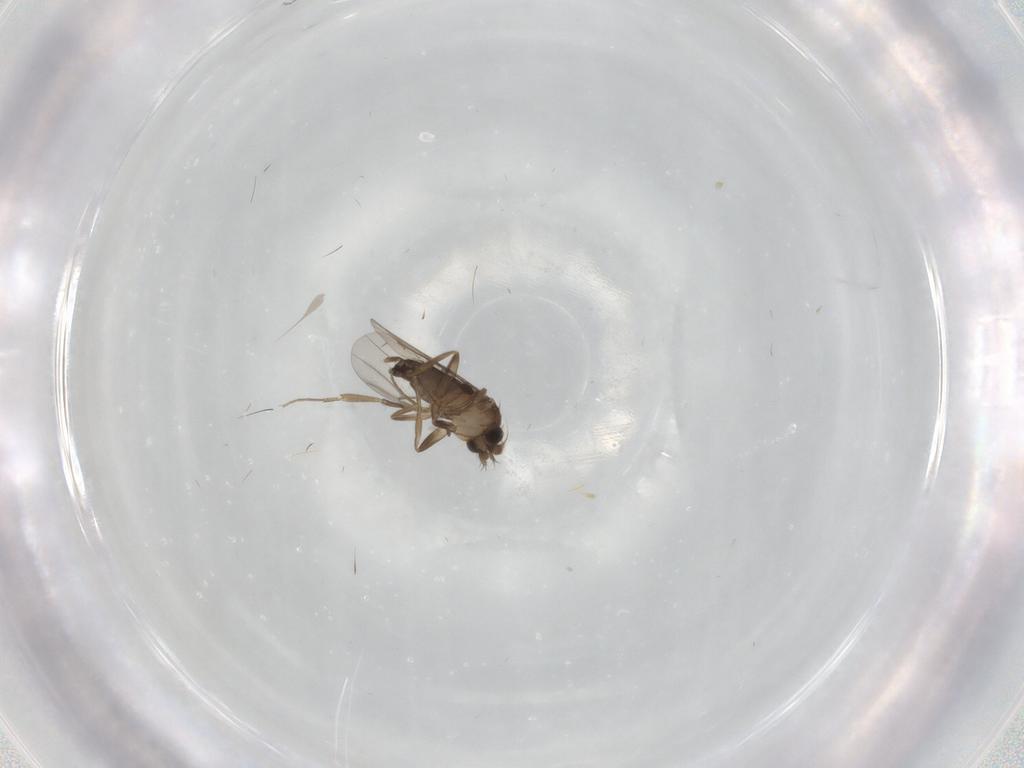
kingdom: Animalia
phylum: Arthropoda
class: Insecta
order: Diptera
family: Phoridae
